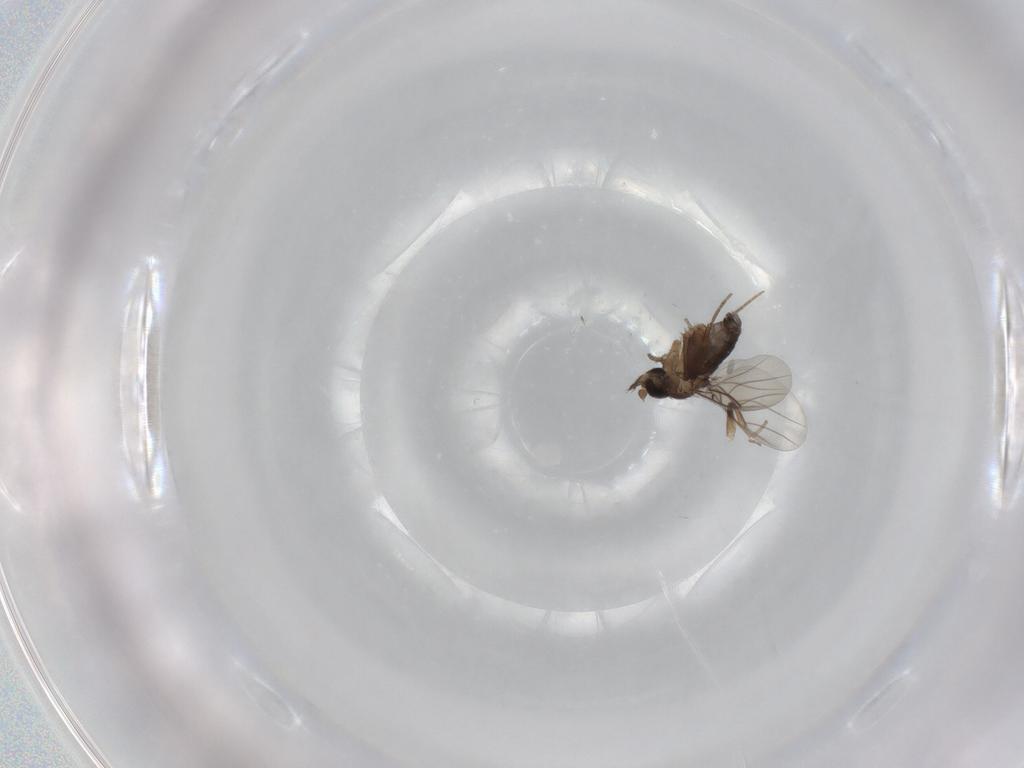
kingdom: Animalia
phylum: Arthropoda
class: Insecta
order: Diptera
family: Phoridae
